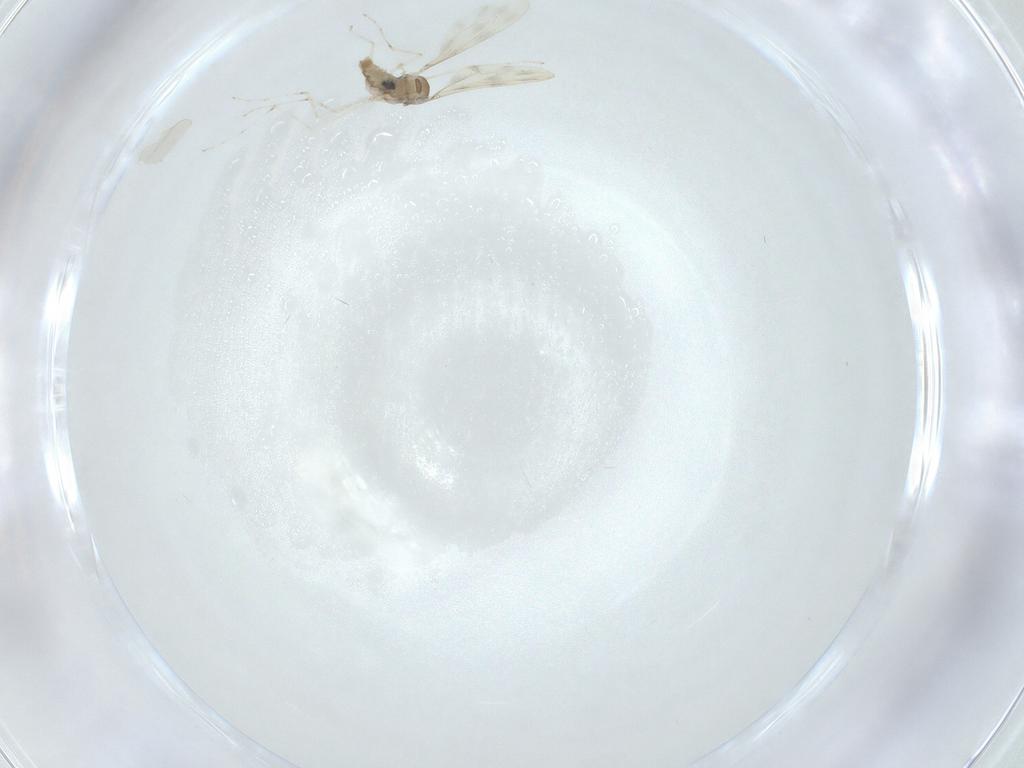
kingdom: Animalia
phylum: Arthropoda
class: Insecta
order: Diptera
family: Cecidomyiidae
